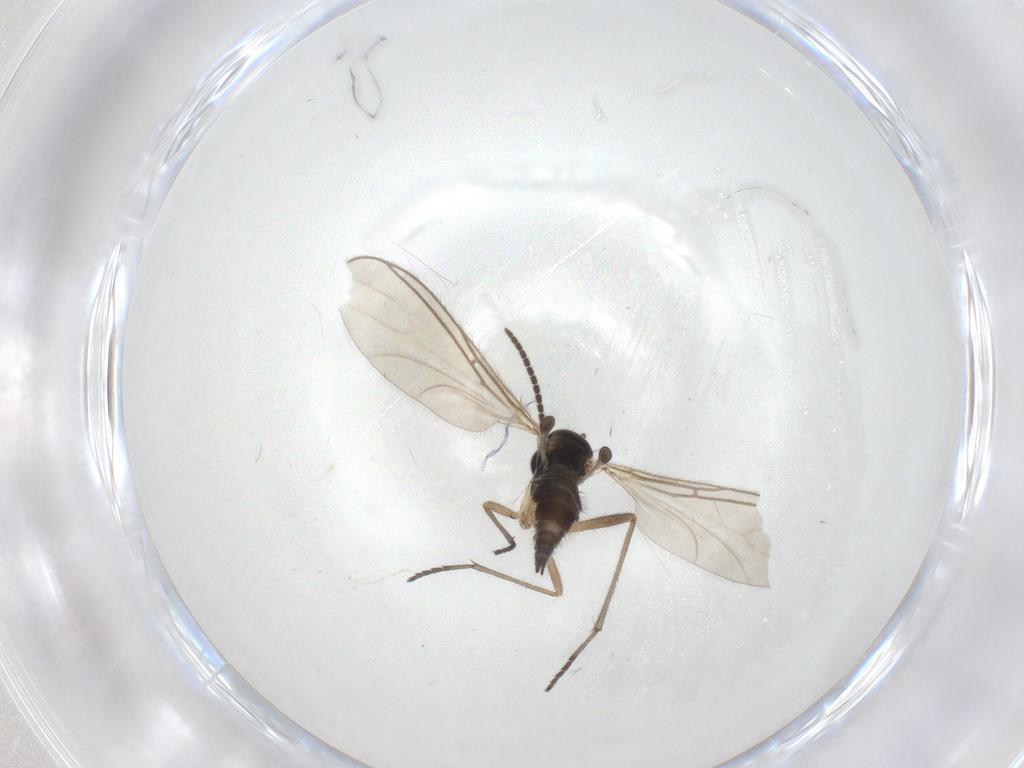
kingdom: Animalia
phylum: Arthropoda
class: Insecta
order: Diptera
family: Sciaridae
